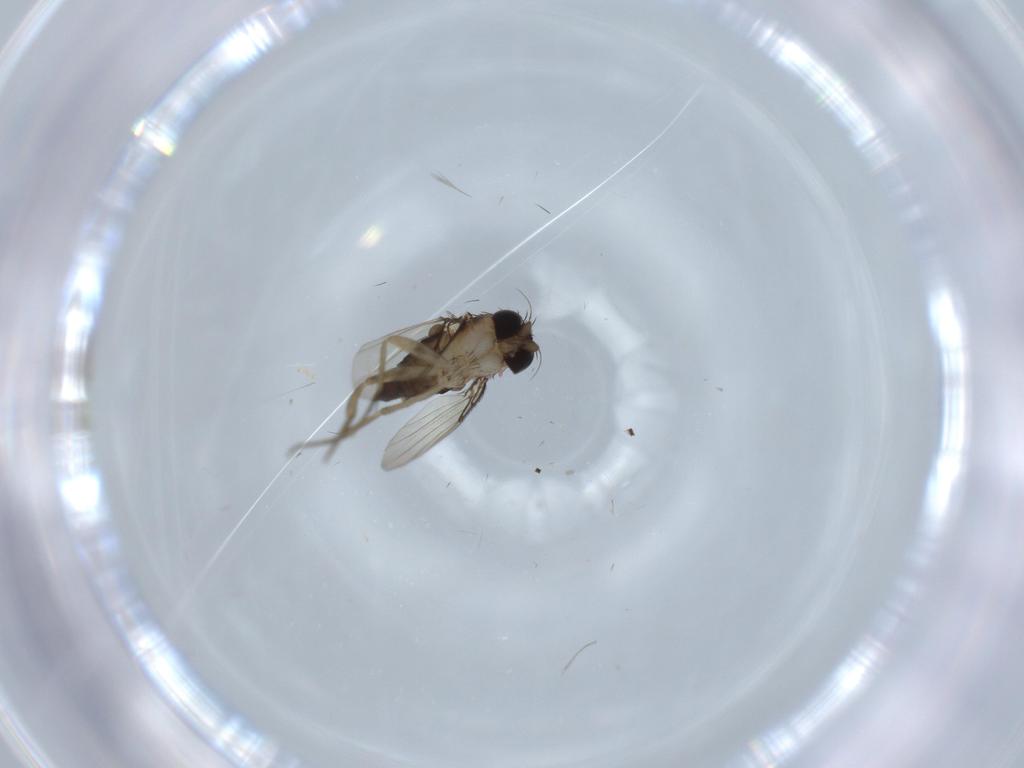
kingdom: Animalia
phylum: Arthropoda
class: Insecta
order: Diptera
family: Phoridae
